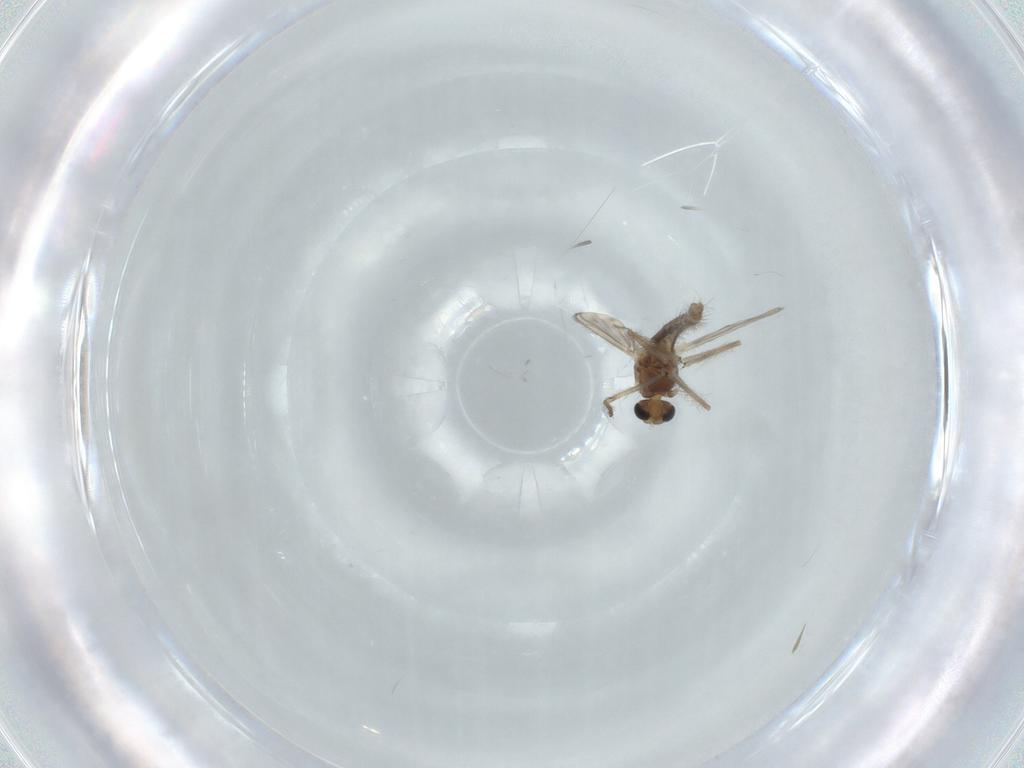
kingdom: Animalia
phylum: Arthropoda
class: Insecta
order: Diptera
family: Chironomidae
